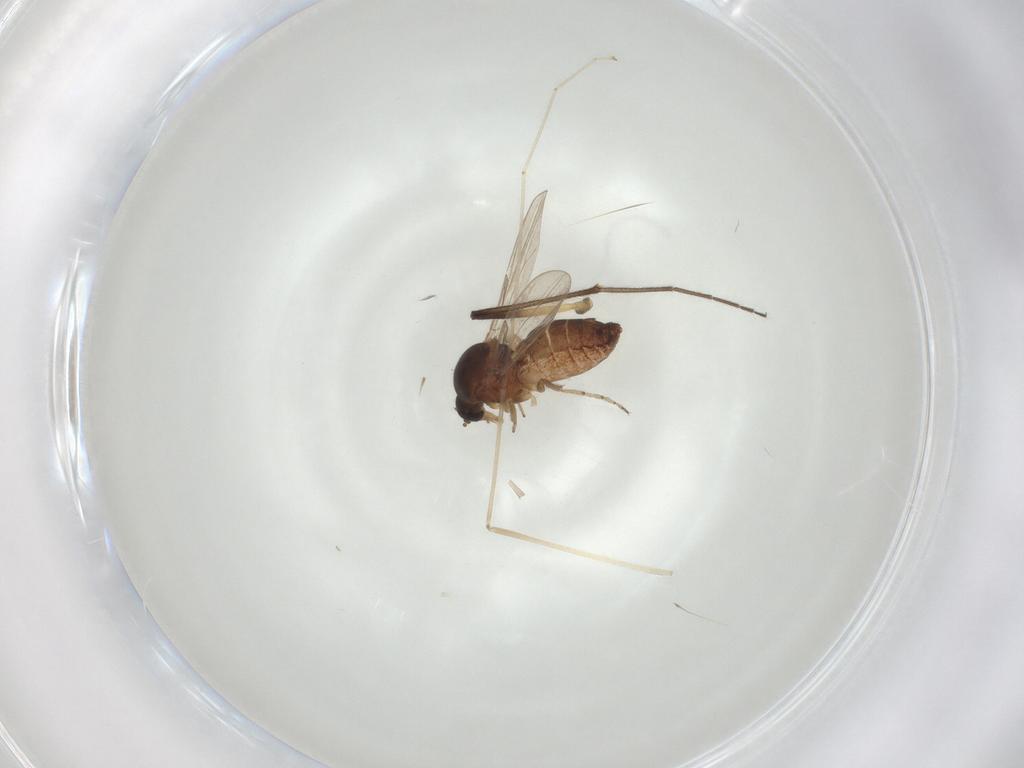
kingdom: Animalia
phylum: Arthropoda
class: Insecta
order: Diptera
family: Ceratopogonidae
